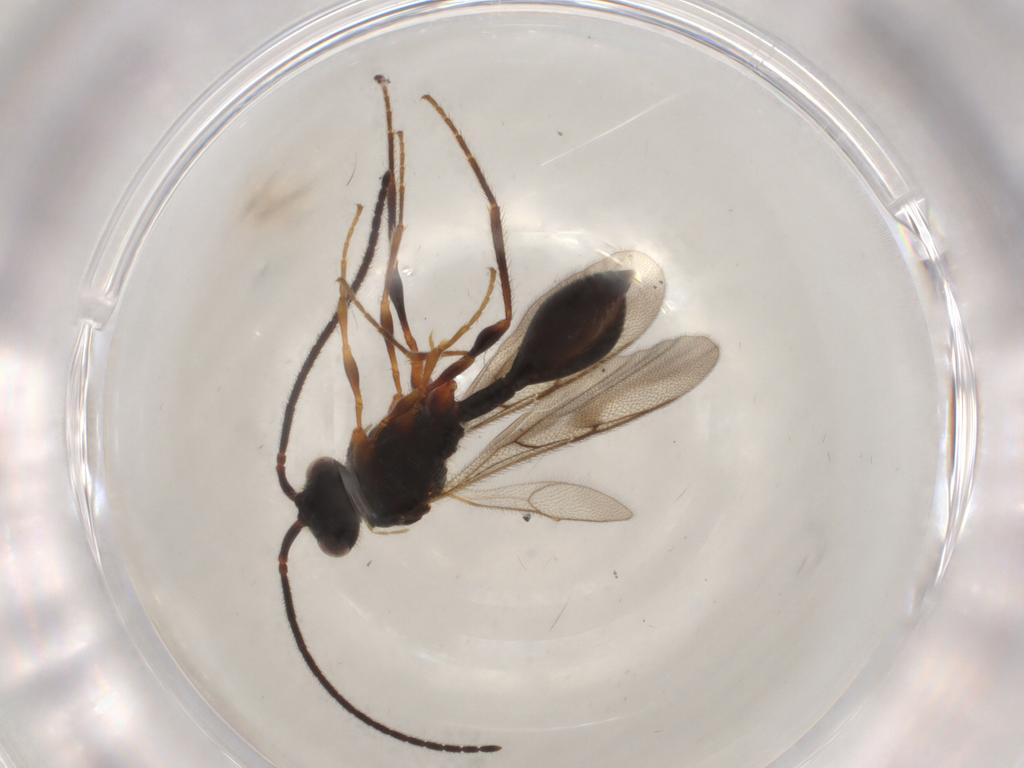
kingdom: Animalia
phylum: Arthropoda
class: Insecta
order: Hymenoptera
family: Diapriidae
